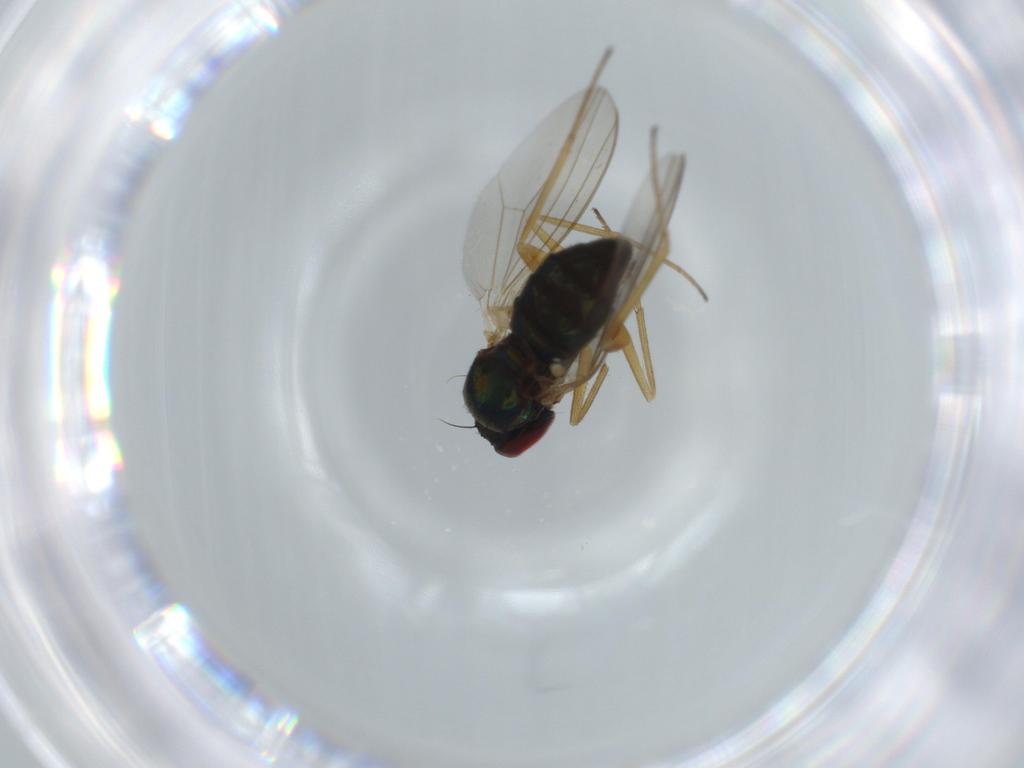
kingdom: Animalia
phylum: Arthropoda
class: Insecta
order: Diptera
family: Dolichopodidae
